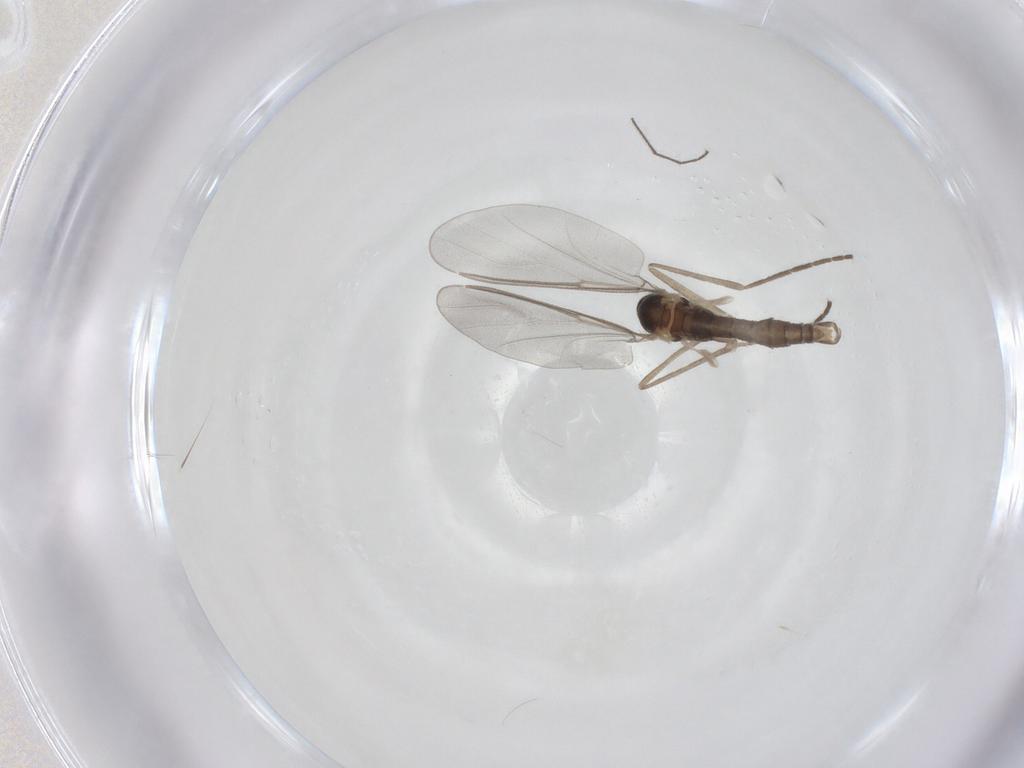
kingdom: Animalia
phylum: Arthropoda
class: Insecta
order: Diptera
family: Cecidomyiidae
